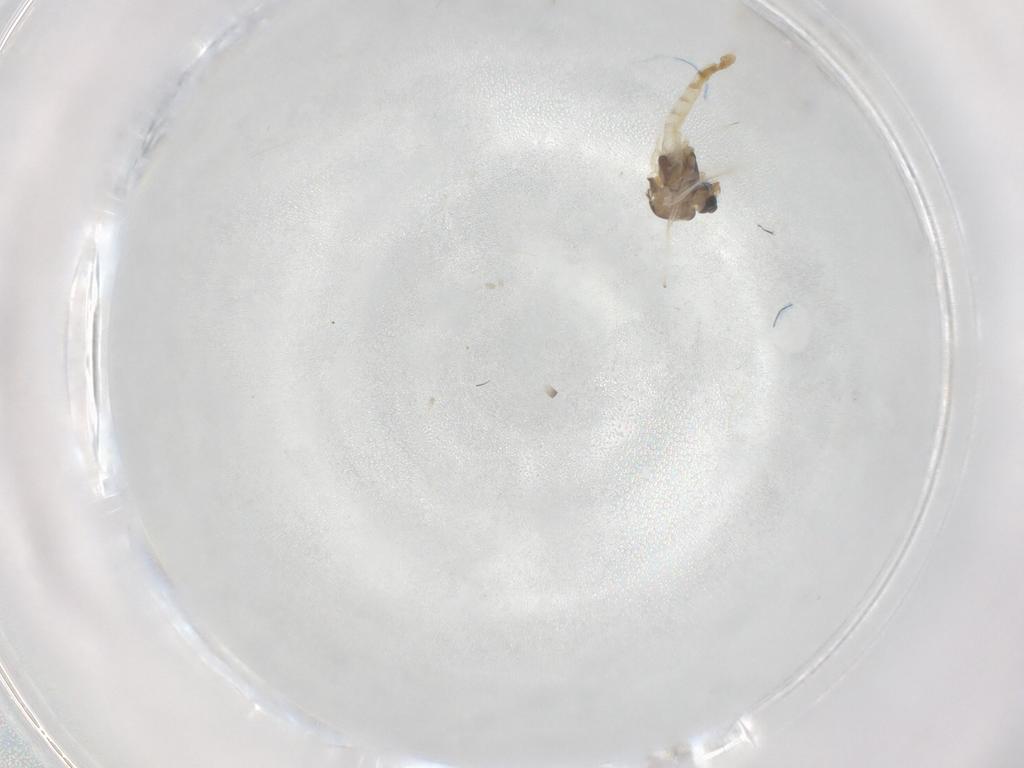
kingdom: Animalia
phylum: Arthropoda
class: Insecta
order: Diptera
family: Chironomidae
